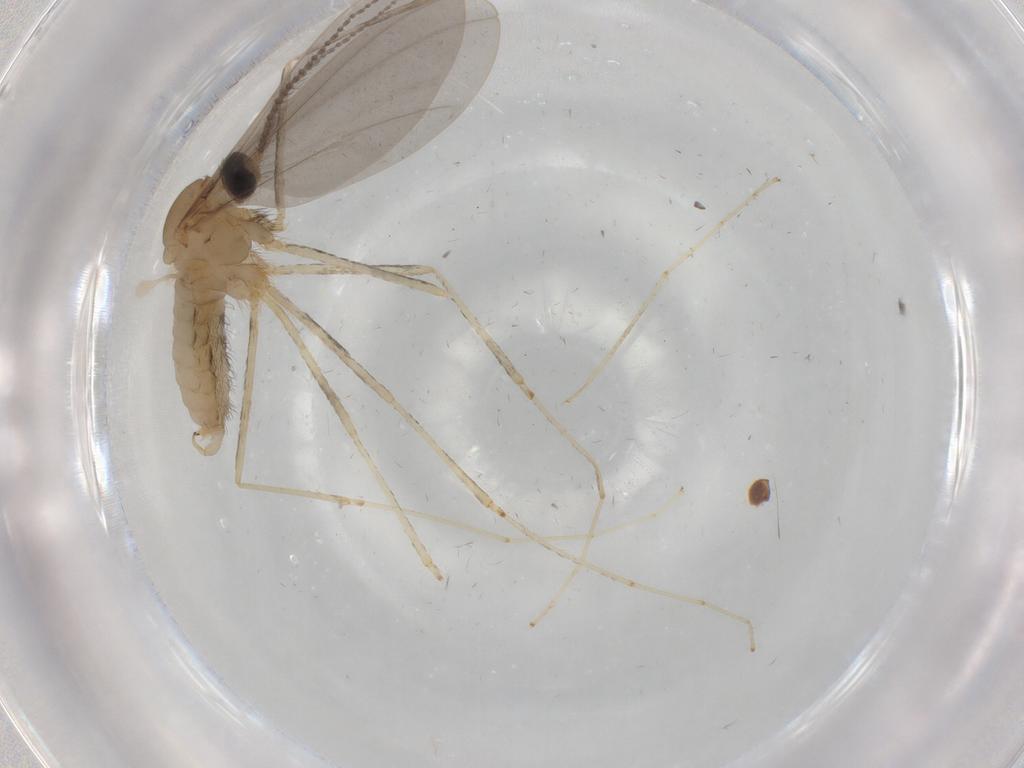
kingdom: Animalia
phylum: Arthropoda
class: Insecta
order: Diptera
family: Cecidomyiidae
